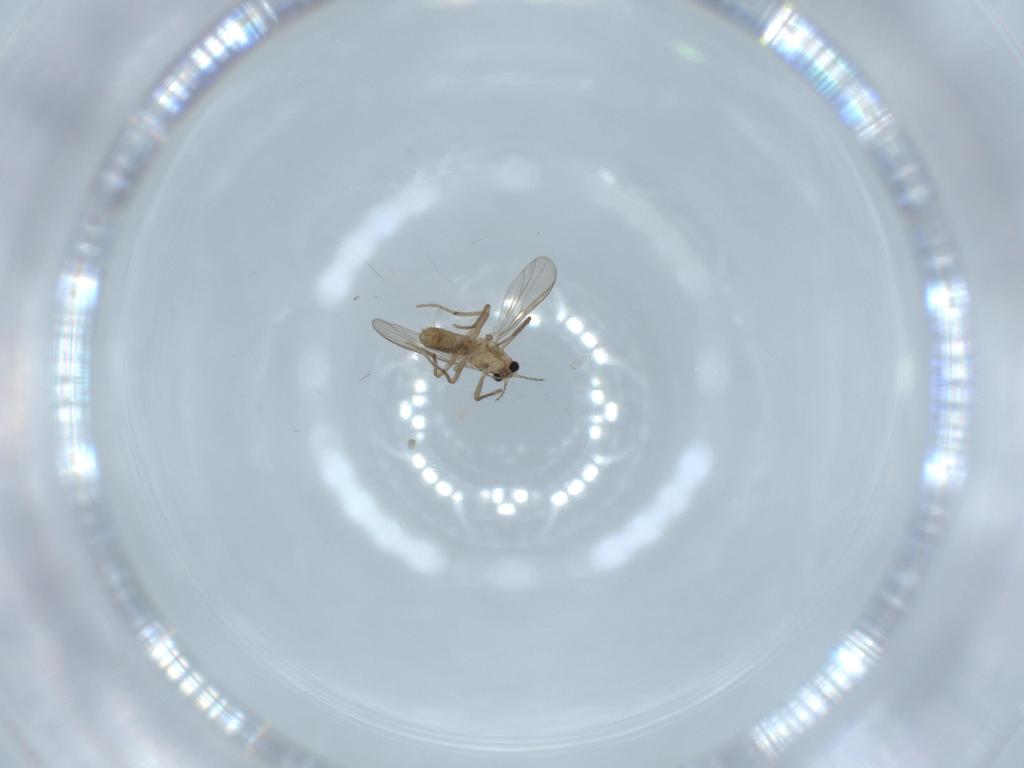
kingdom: Animalia
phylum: Arthropoda
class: Insecta
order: Diptera
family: Chironomidae
